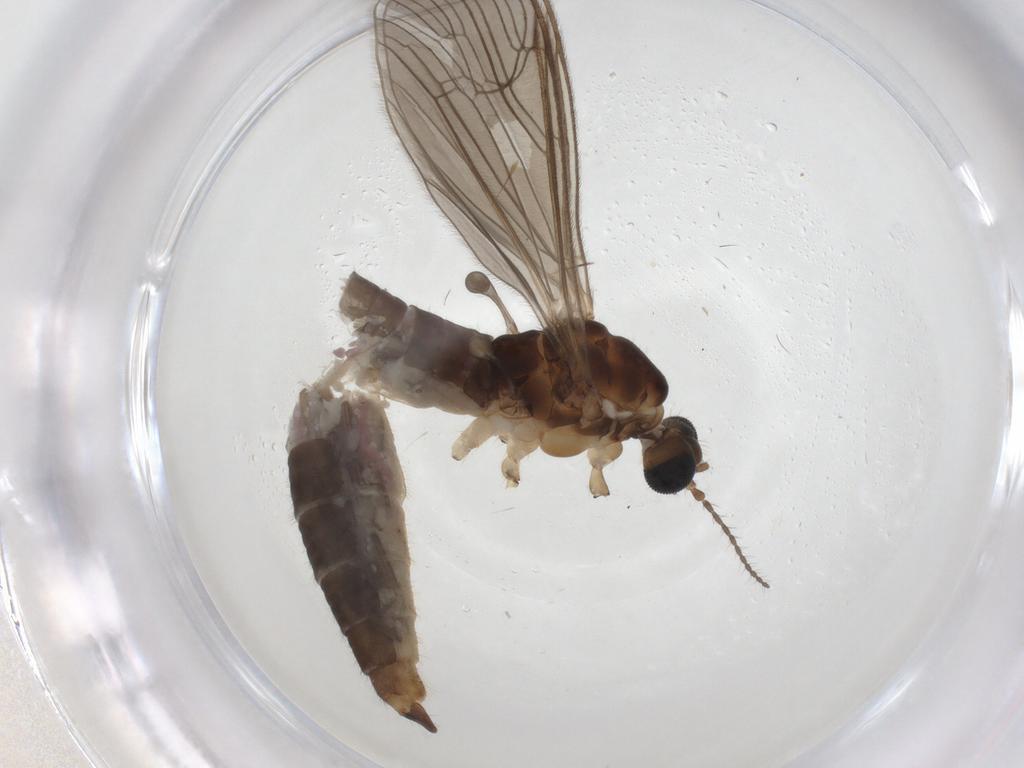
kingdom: Animalia
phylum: Arthropoda
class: Insecta
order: Diptera
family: Limoniidae
